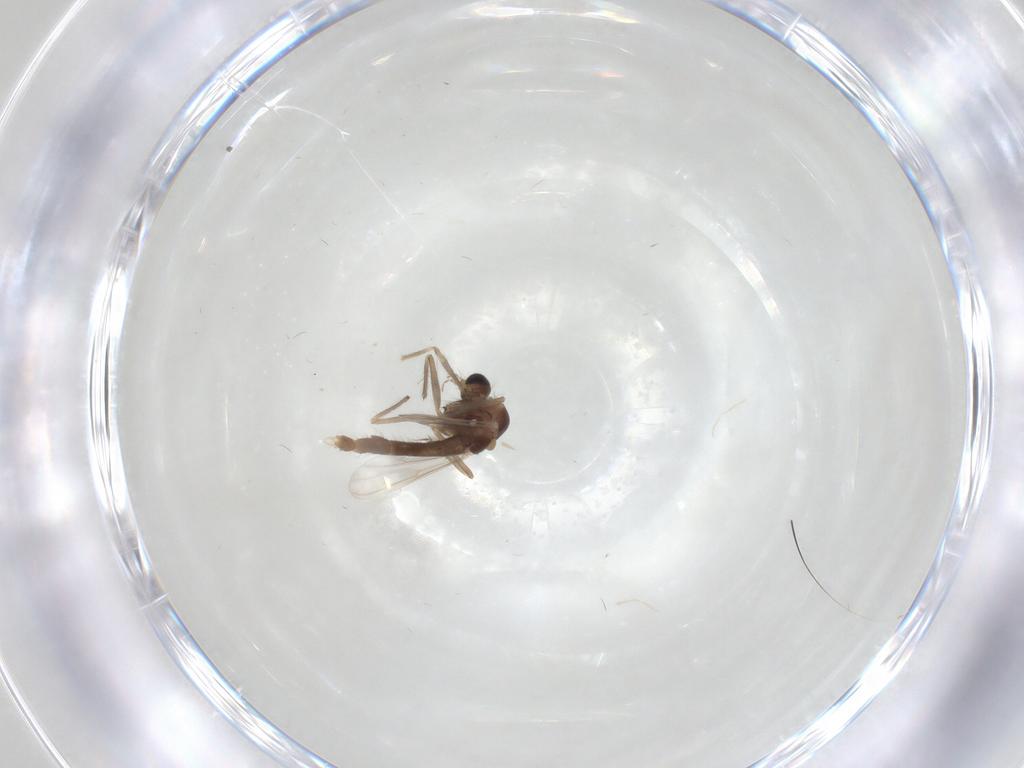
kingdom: Animalia
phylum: Arthropoda
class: Insecta
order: Diptera
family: Chironomidae
